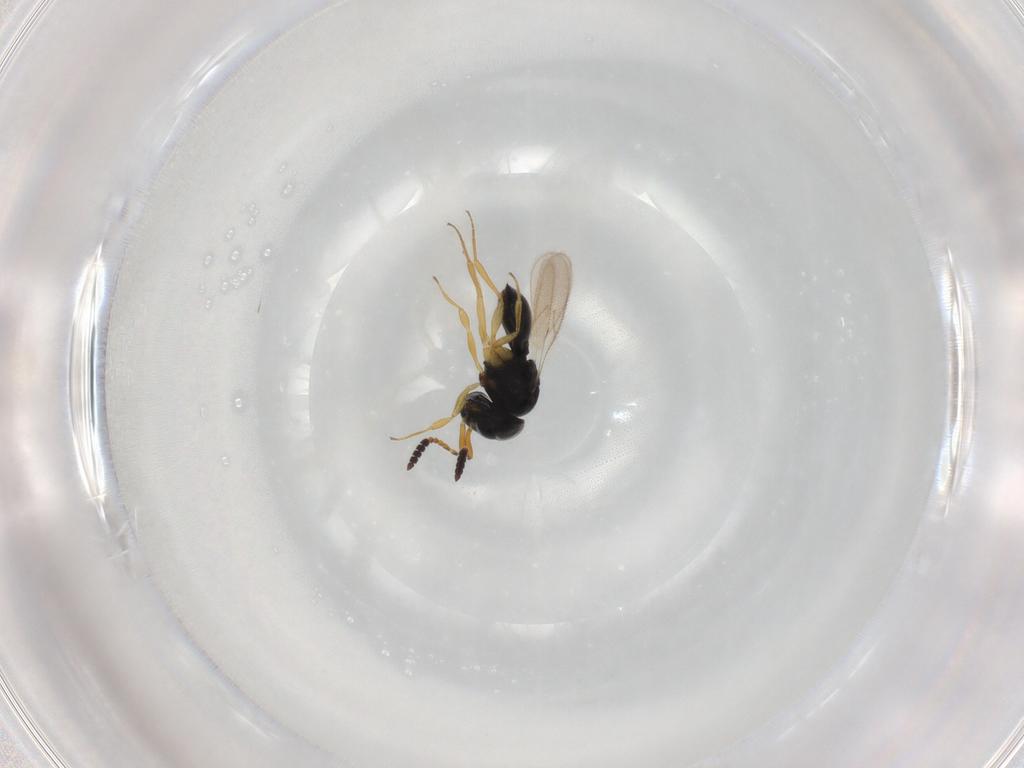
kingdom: Animalia
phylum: Arthropoda
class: Insecta
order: Hymenoptera
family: Scelionidae
